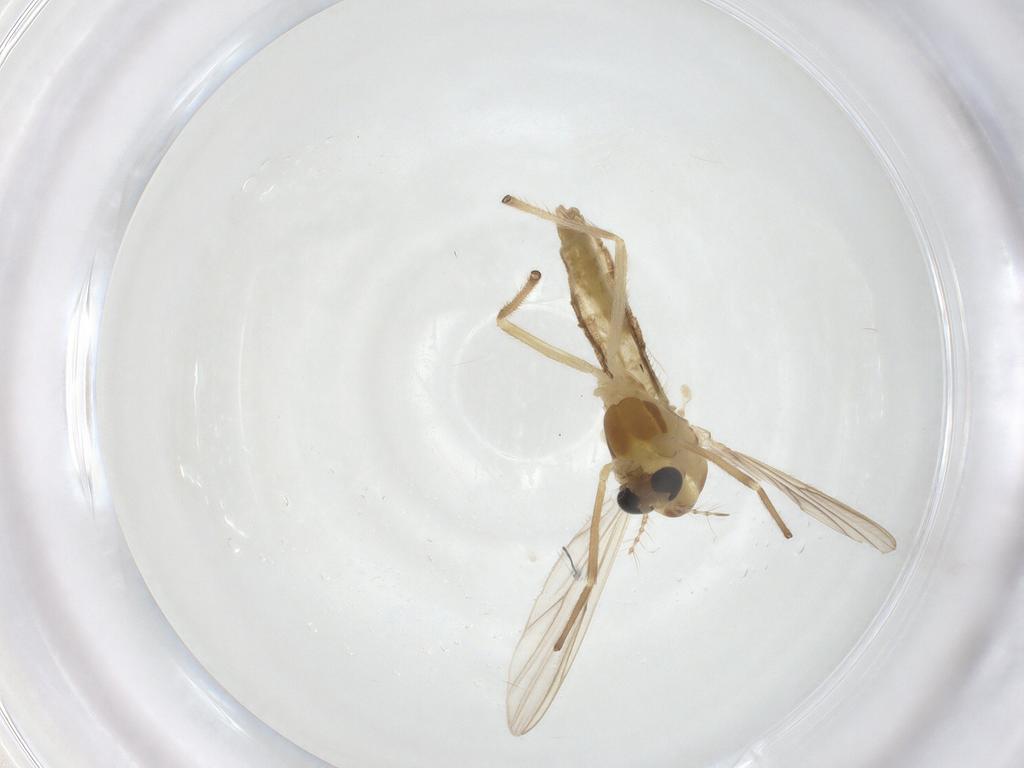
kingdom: Animalia
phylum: Arthropoda
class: Insecta
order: Diptera
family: Chironomidae
